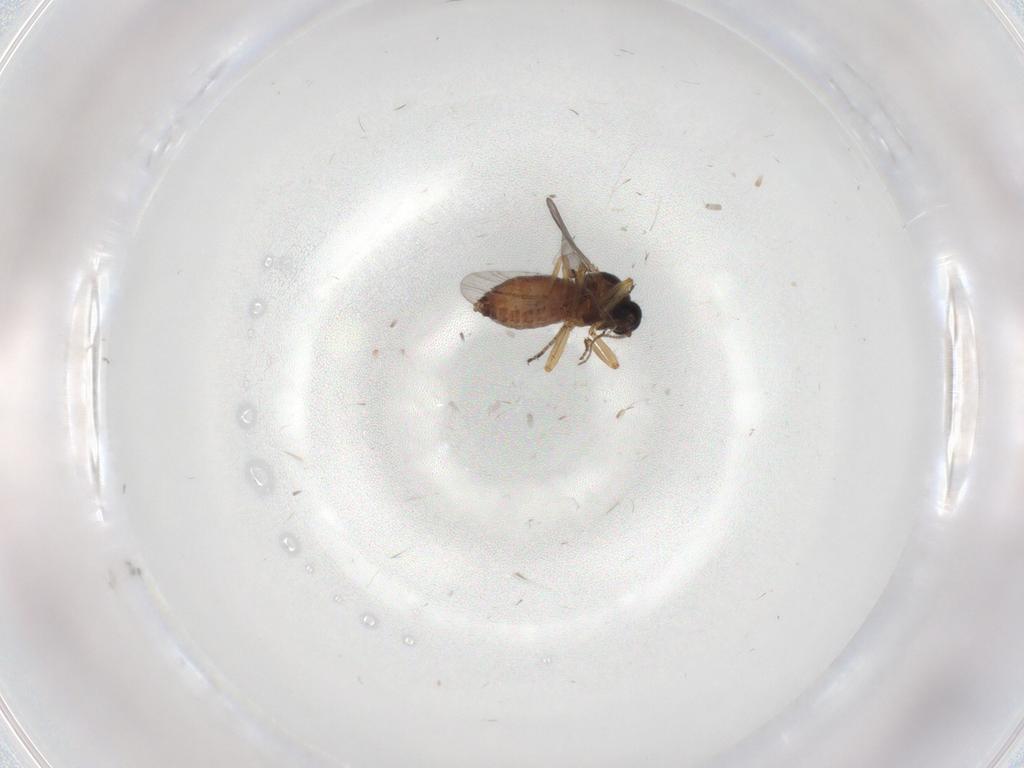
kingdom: Animalia
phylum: Arthropoda
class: Insecta
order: Diptera
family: Ceratopogonidae
